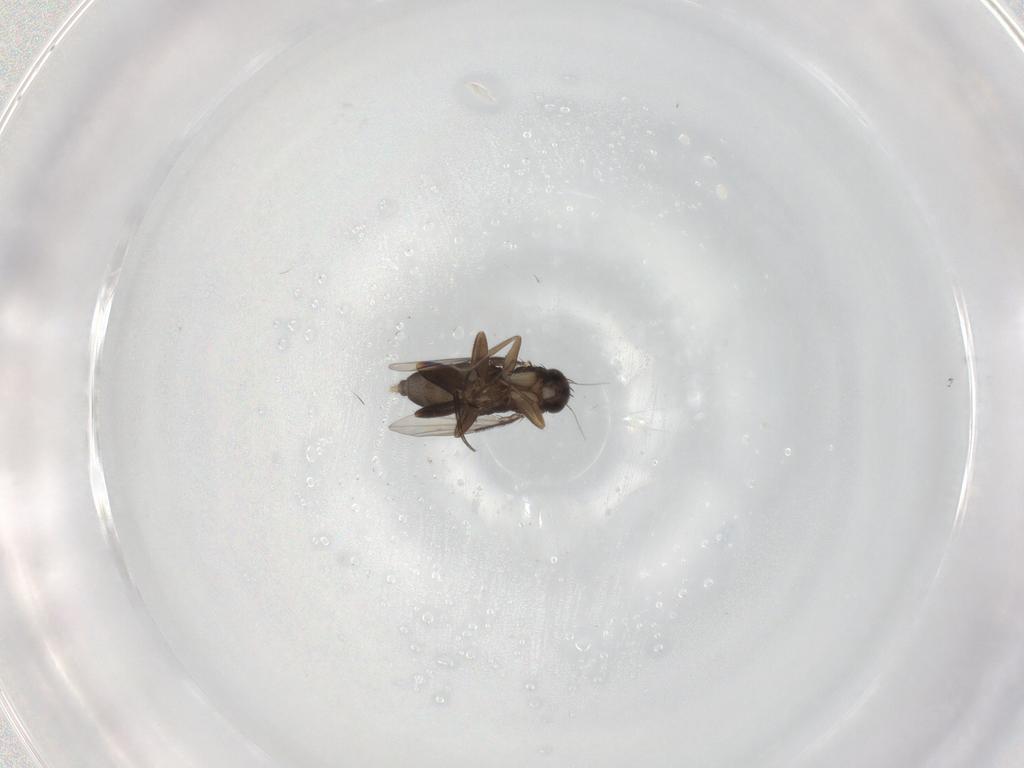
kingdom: Animalia
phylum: Arthropoda
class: Insecta
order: Diptera
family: Phoridae
